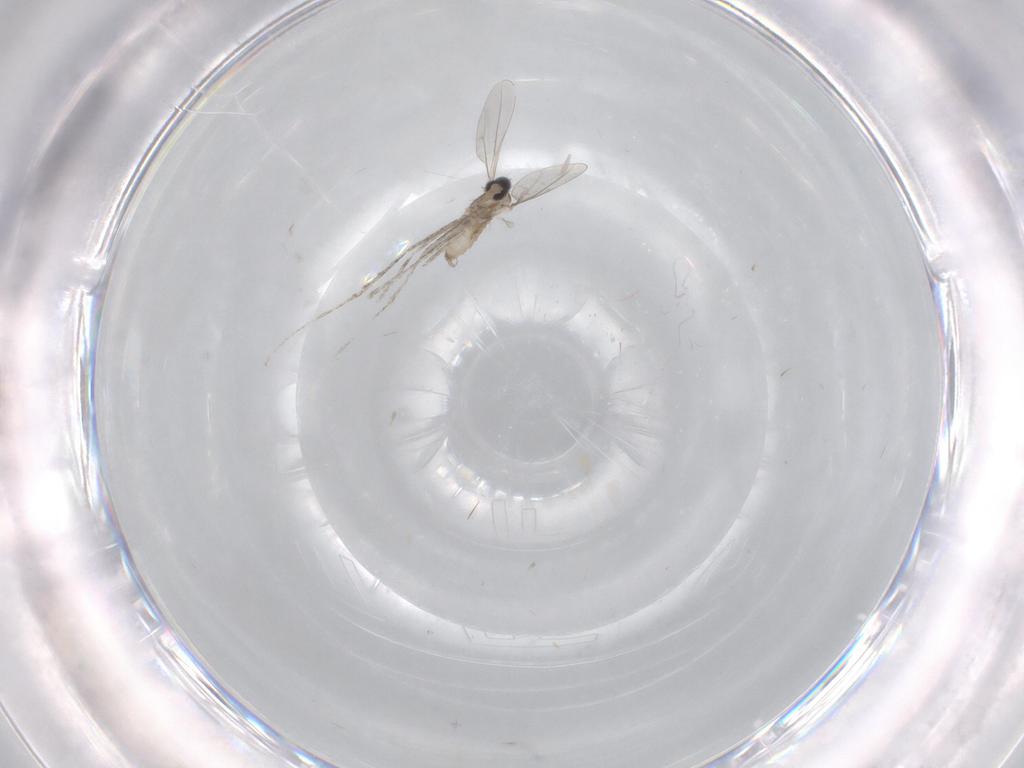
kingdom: Animalia
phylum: Arthropoda
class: Insecta
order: Diptera
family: Cecidomyiidae
